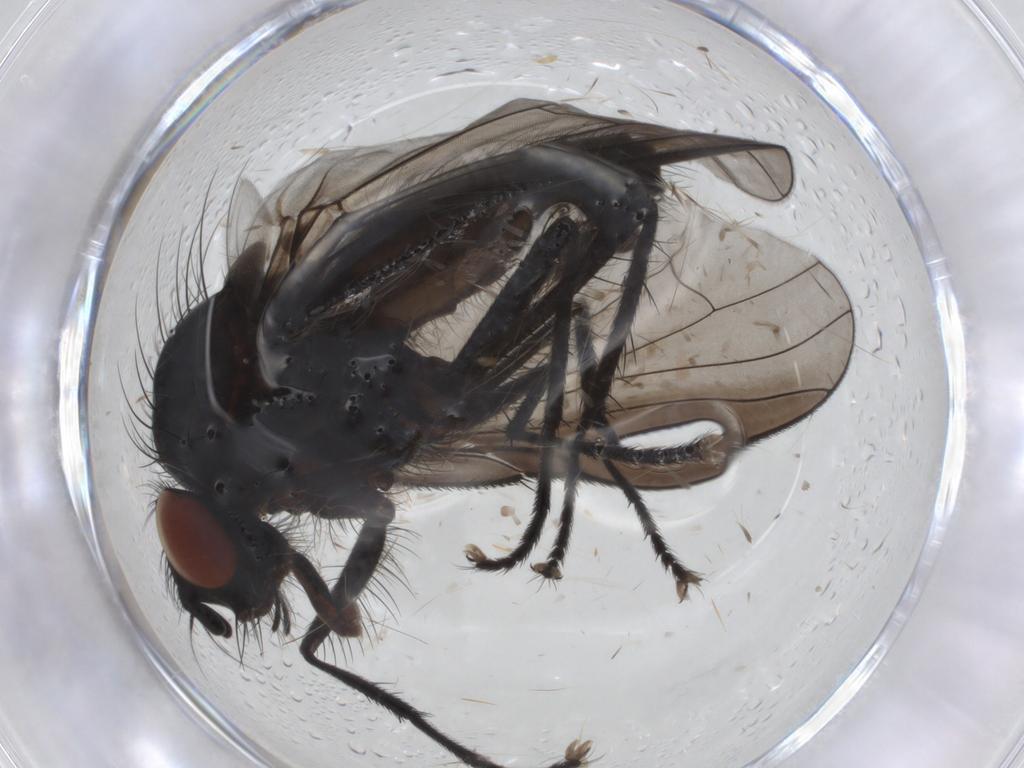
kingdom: Animalia
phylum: Arthropoda
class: Insecta
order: Diptera
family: Anthomyiidae
